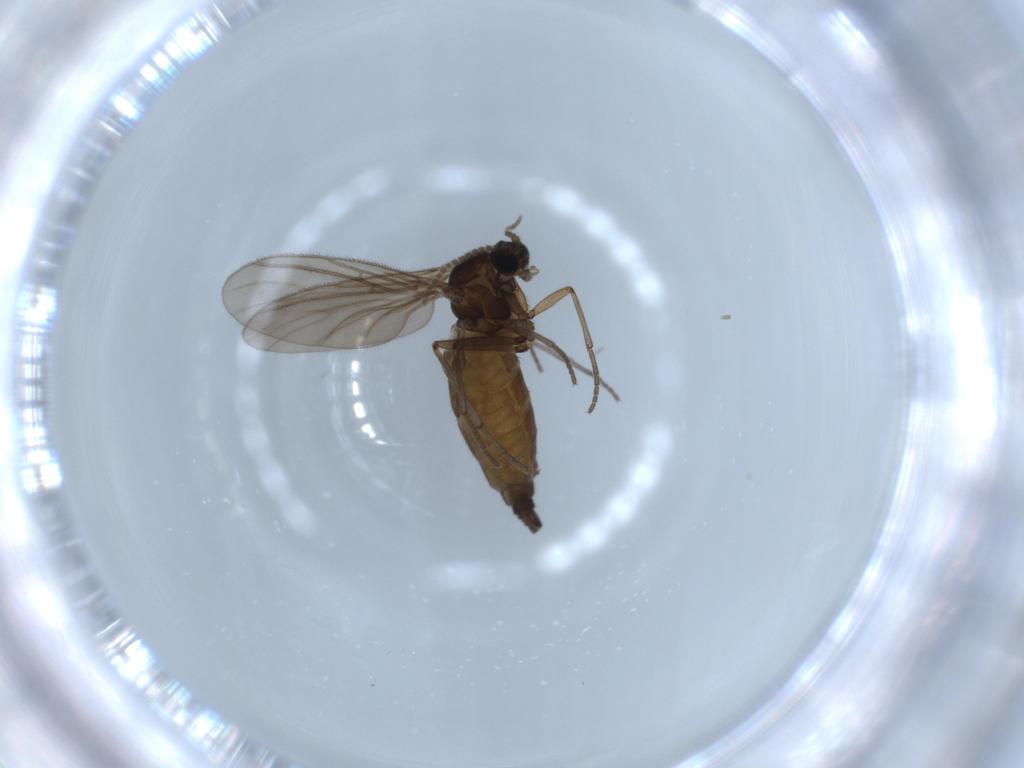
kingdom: Animalia
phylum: Arthropoda
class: Insecta
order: Diptera
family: Sciaridae
